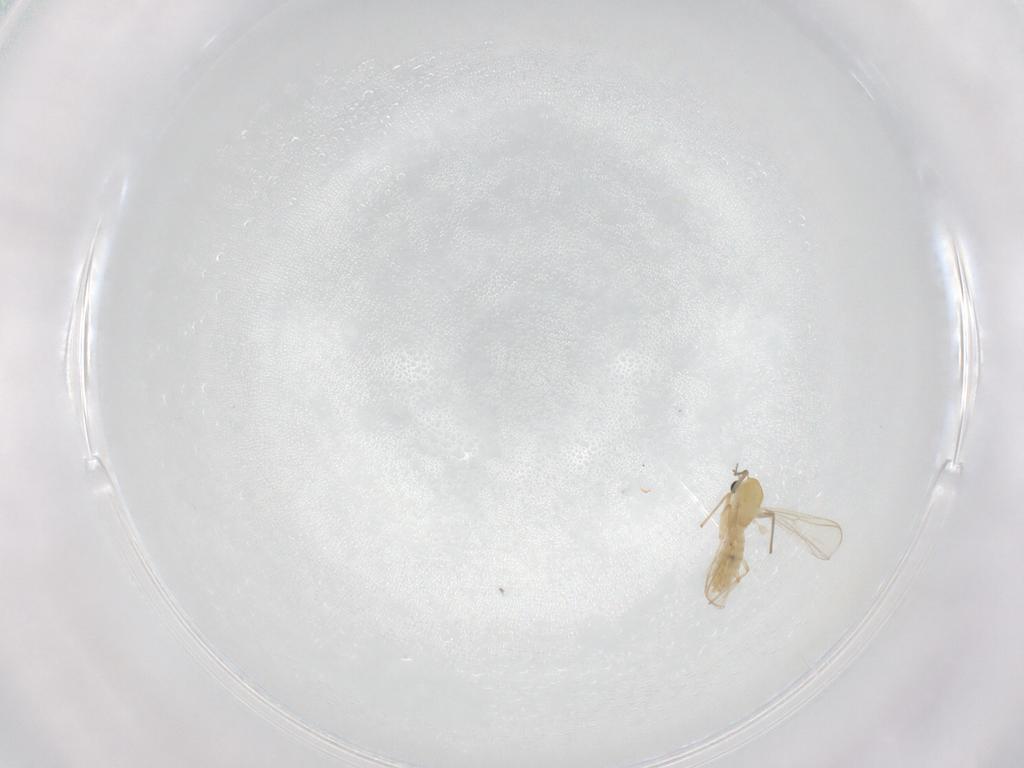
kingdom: Animalia
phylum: Arthropoda
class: Insecta
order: Diptera
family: Chironomidae
